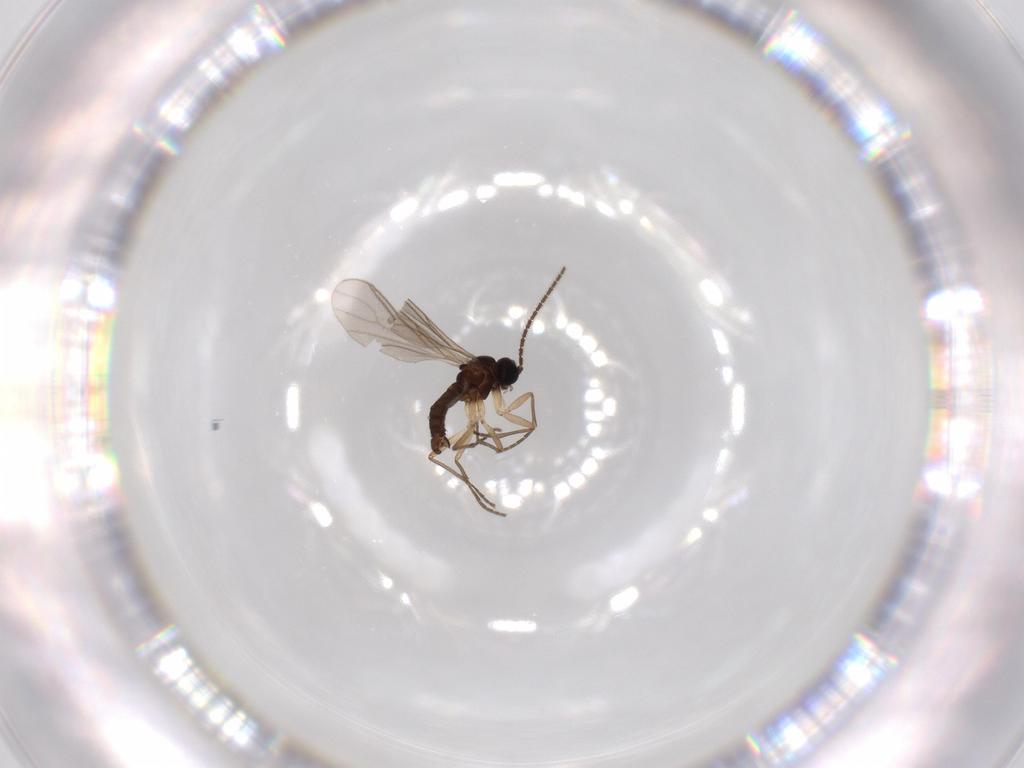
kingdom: Animalia
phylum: Arthropoda
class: Insecta
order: Diptera
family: Sciaridae
